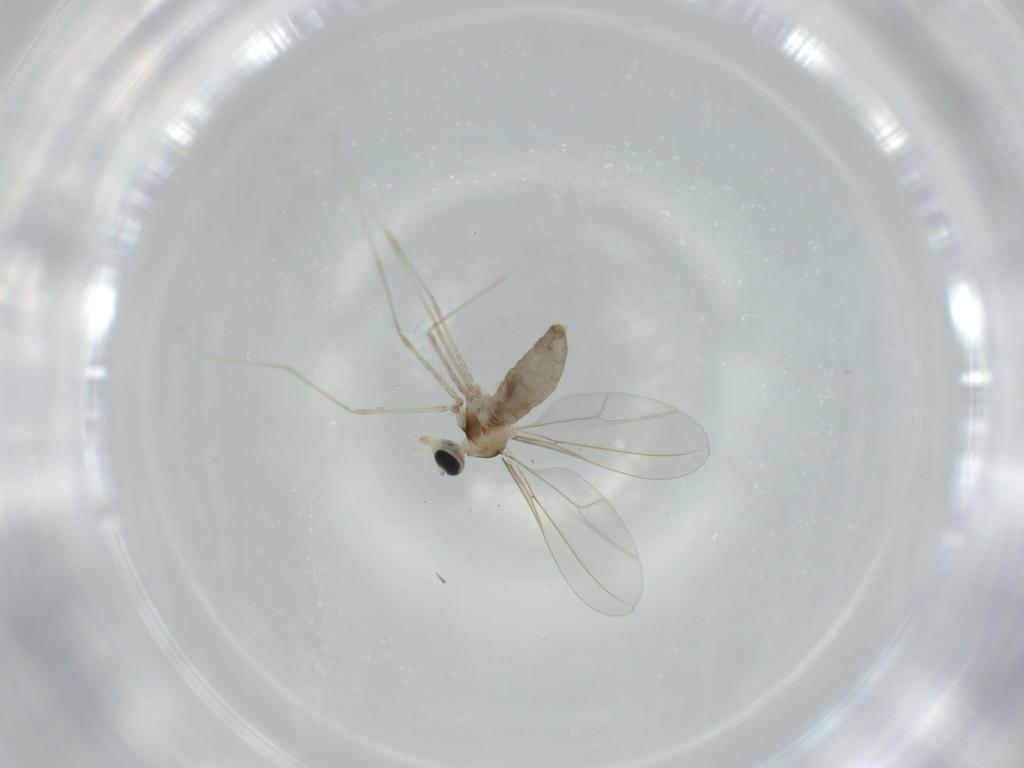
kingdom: Animalia
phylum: Arthropoda
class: Insecta
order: Diptera
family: Cecidomyiidae
